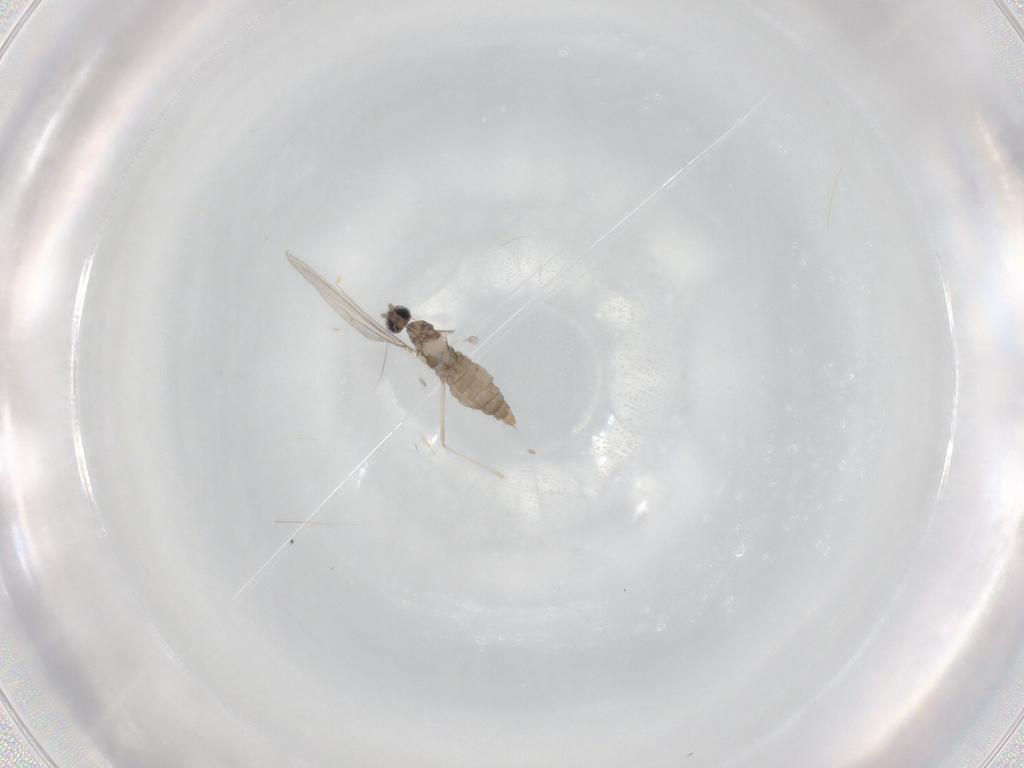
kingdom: Animalia
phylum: Arthropoda
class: Insecta
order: Diptera
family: Cecidomyiidae
